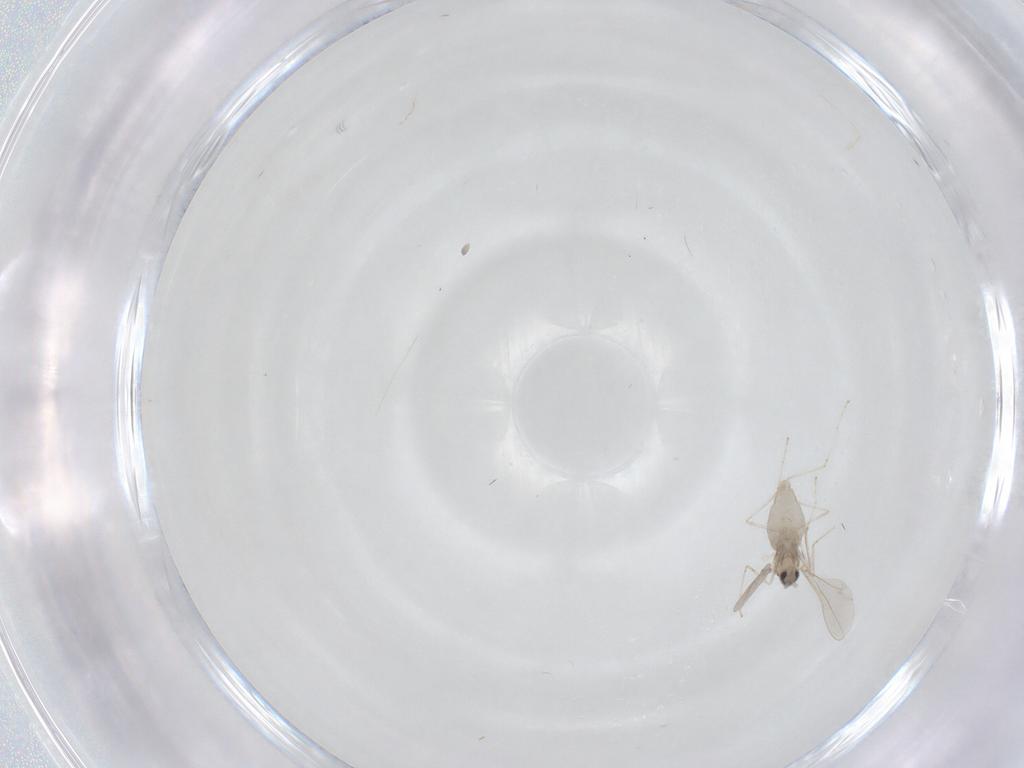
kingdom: Animalia
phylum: Arthropoda
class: Insecta
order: Diptera
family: Cecidomyiidae
